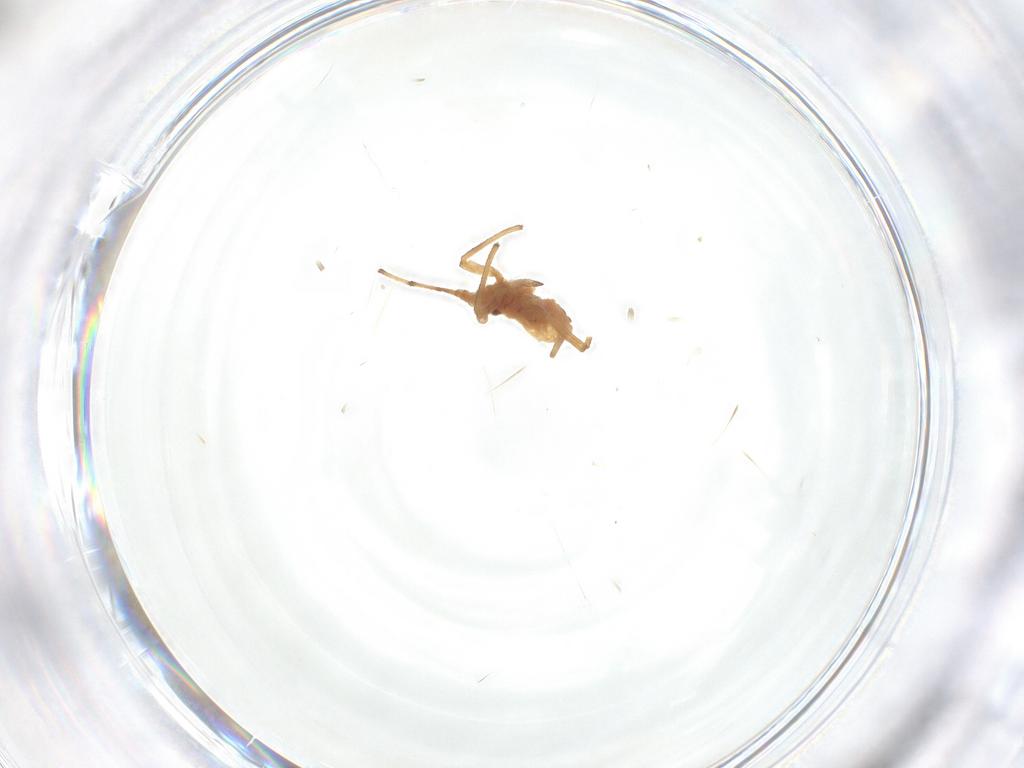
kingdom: Animalia
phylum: Arthropoda
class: Insecta
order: Hemiptera
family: Aphididae
